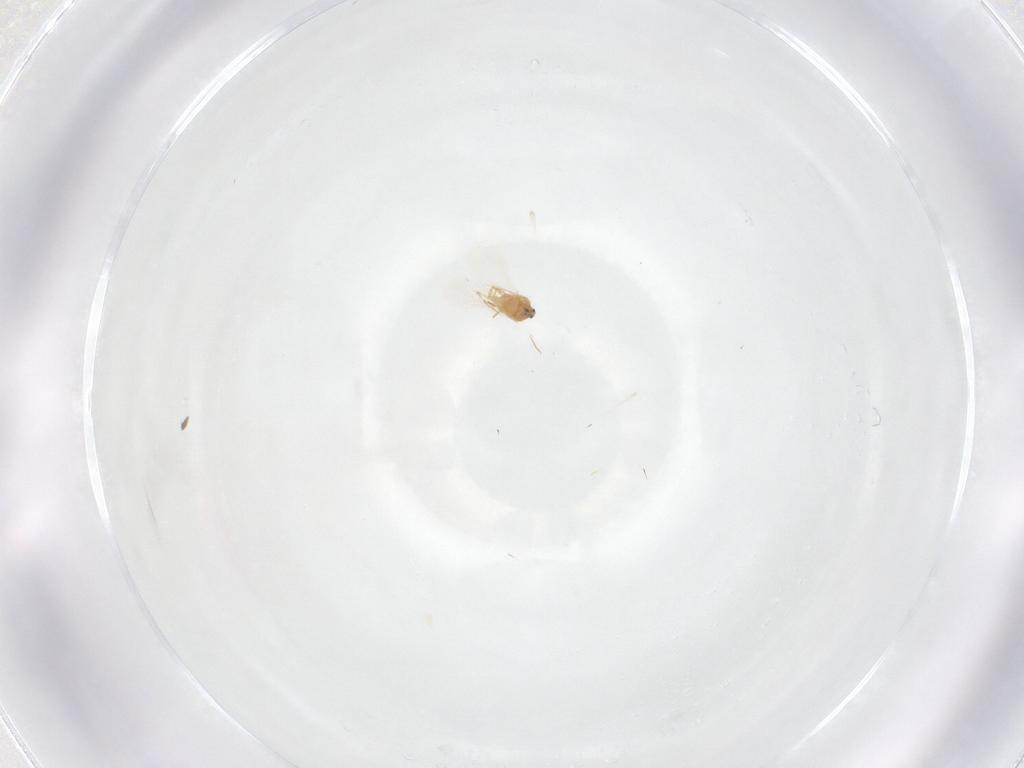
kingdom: Animalia
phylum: Arthropoda
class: Insecta
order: Hemiptera
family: Diaspididae
